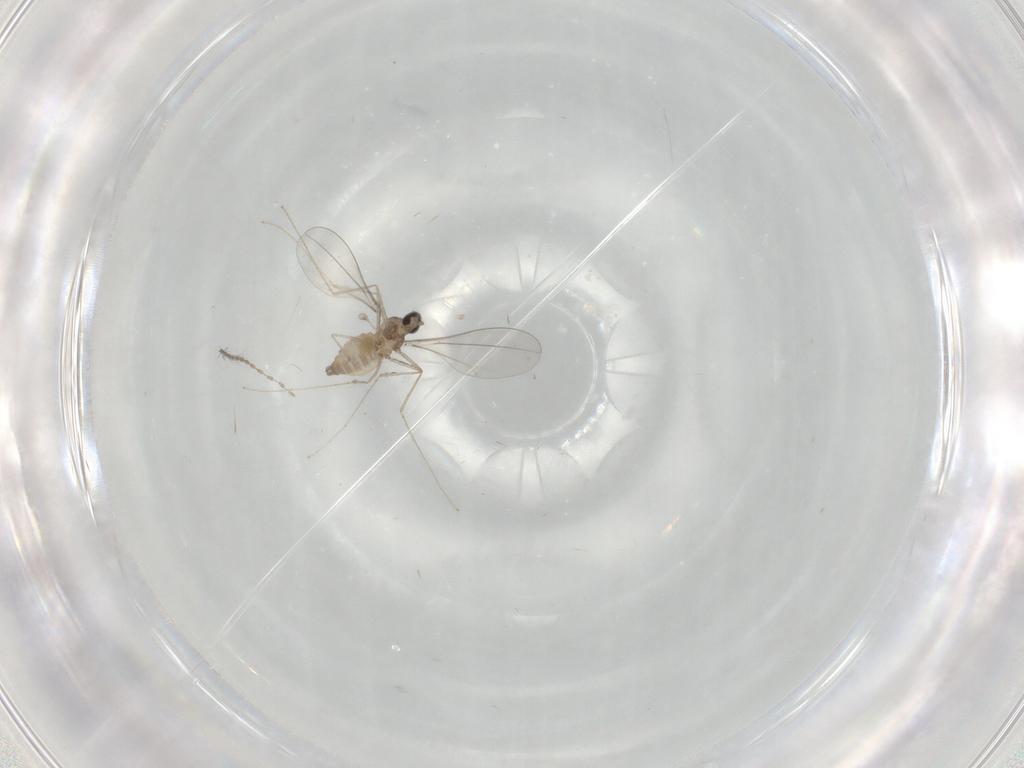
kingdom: Animalia
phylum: Arthropoda
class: Insecta
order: Diptera
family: Cecidomyiidae
